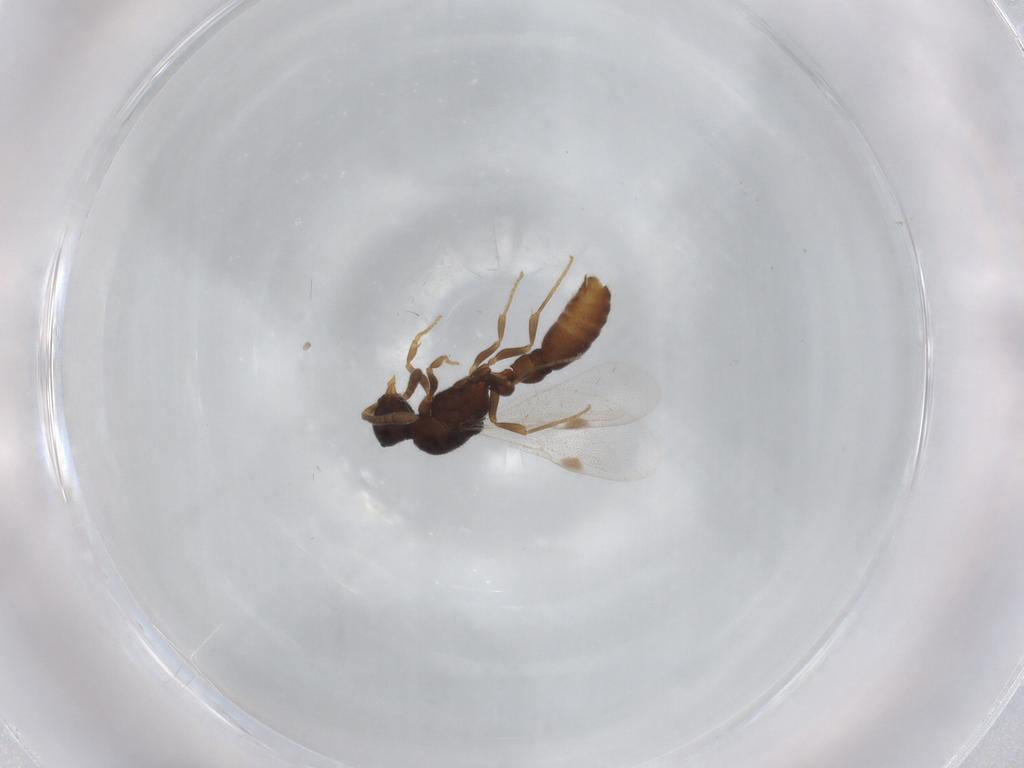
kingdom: Animalia
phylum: Arthropoda
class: Insecta
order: Hymenoptera
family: Formicidae
